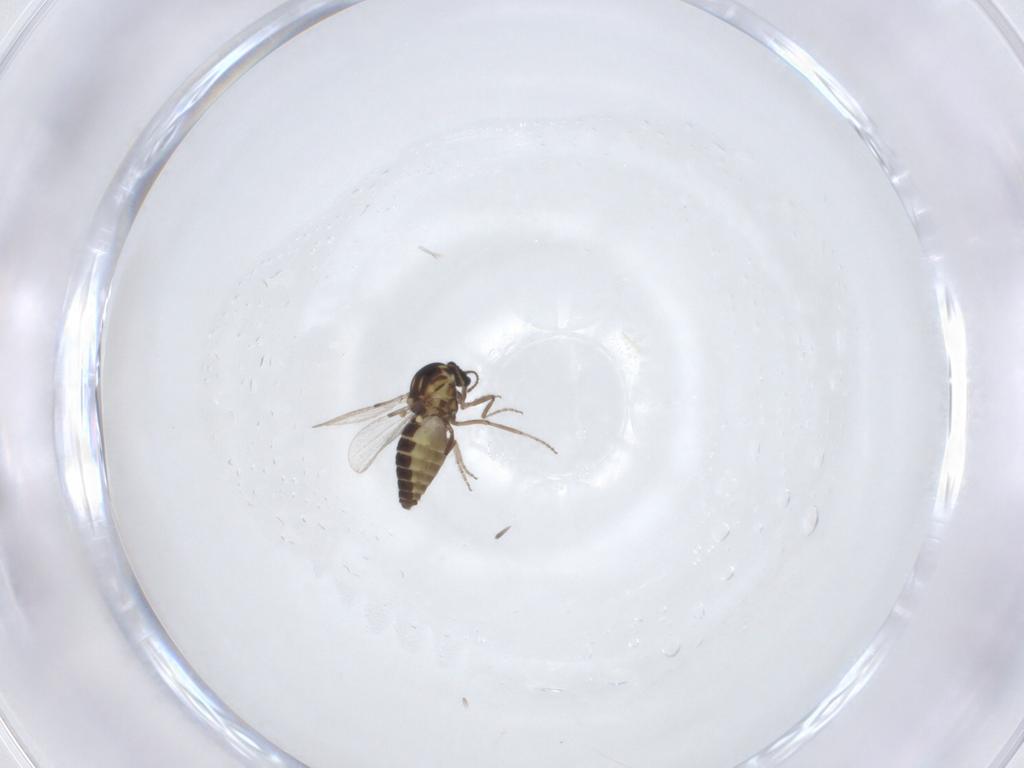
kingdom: Animalia
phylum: Arthropoda
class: Insecta
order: Diptera
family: Ceratopogonidae
